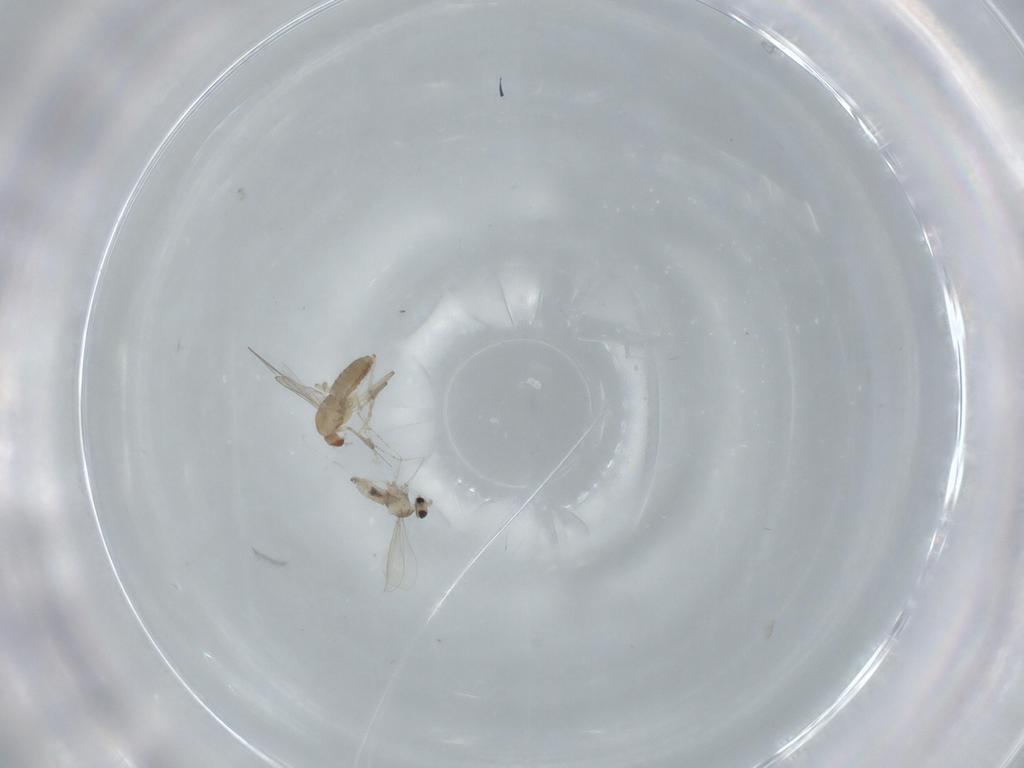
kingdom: Animalia
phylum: Arthropoda
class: Insecta
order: Diptera
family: Cecidomyiidae
